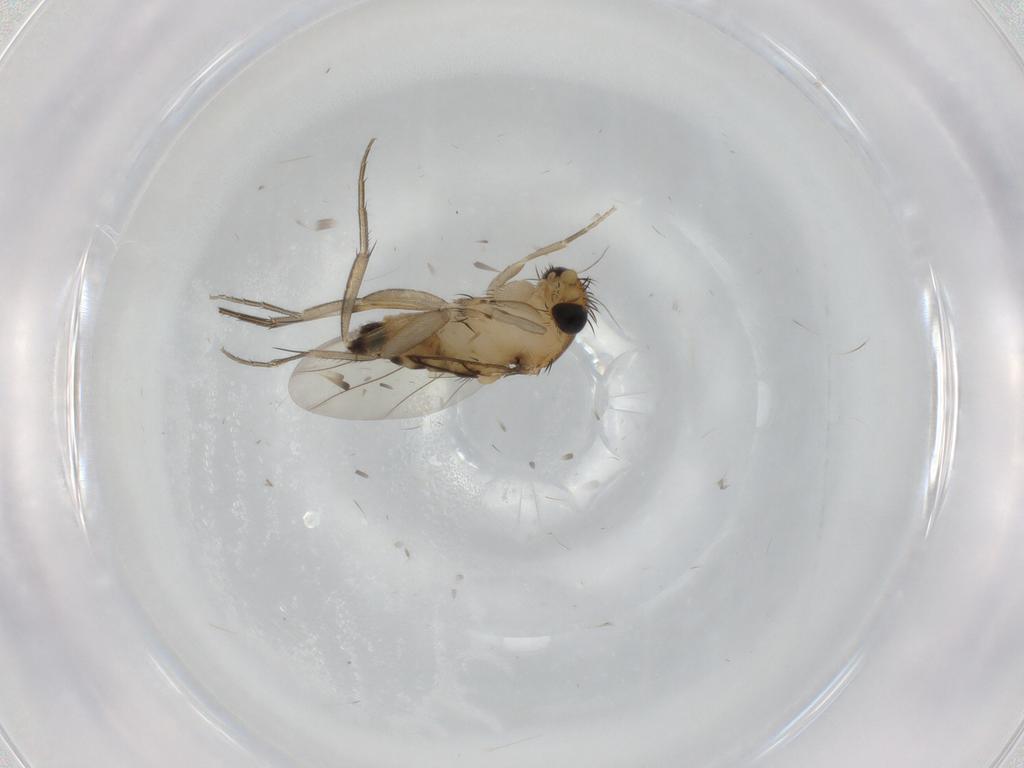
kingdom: Animalia
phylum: Arthropoda
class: Insecta
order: Diptera
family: Phoridae
